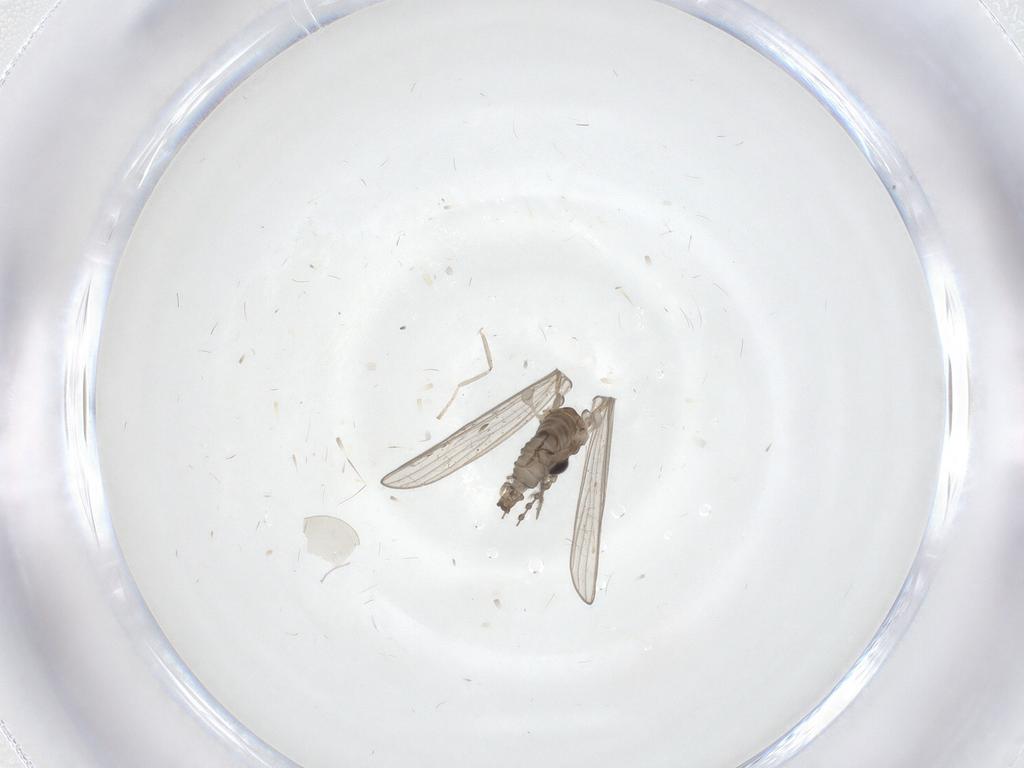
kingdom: Animalia
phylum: Arthropoda
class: Insecta
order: Diptera
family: Psychodidae
